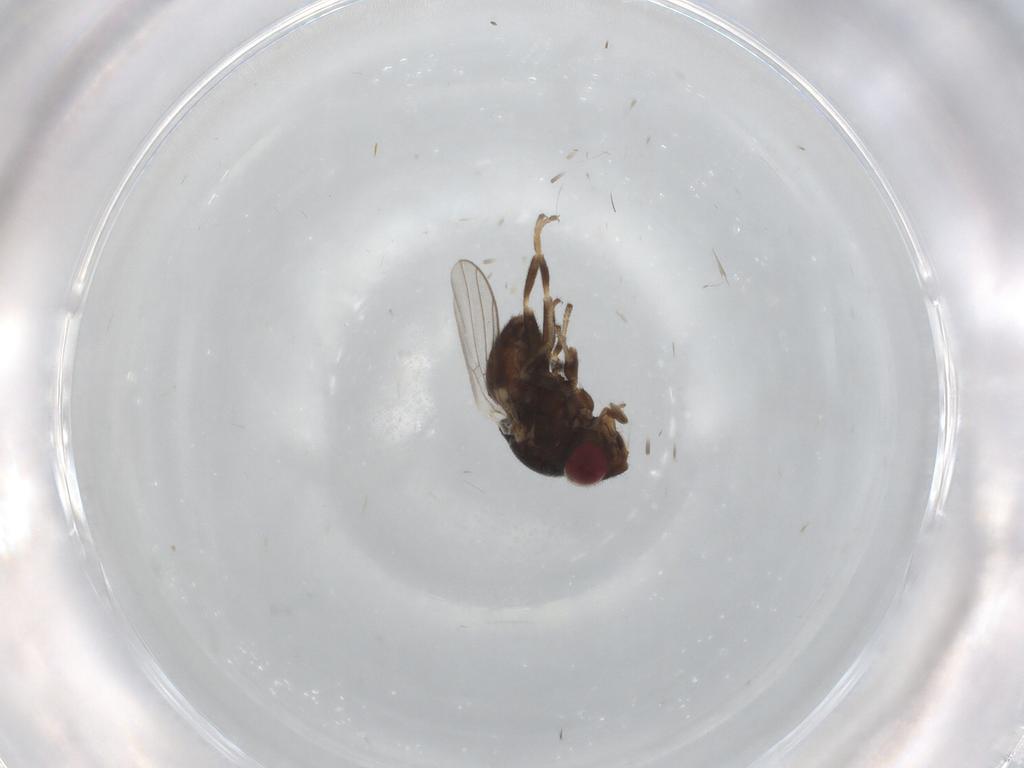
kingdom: Animalia
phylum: Arthropoda
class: Insecta
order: Diptera
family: Chloropidae
